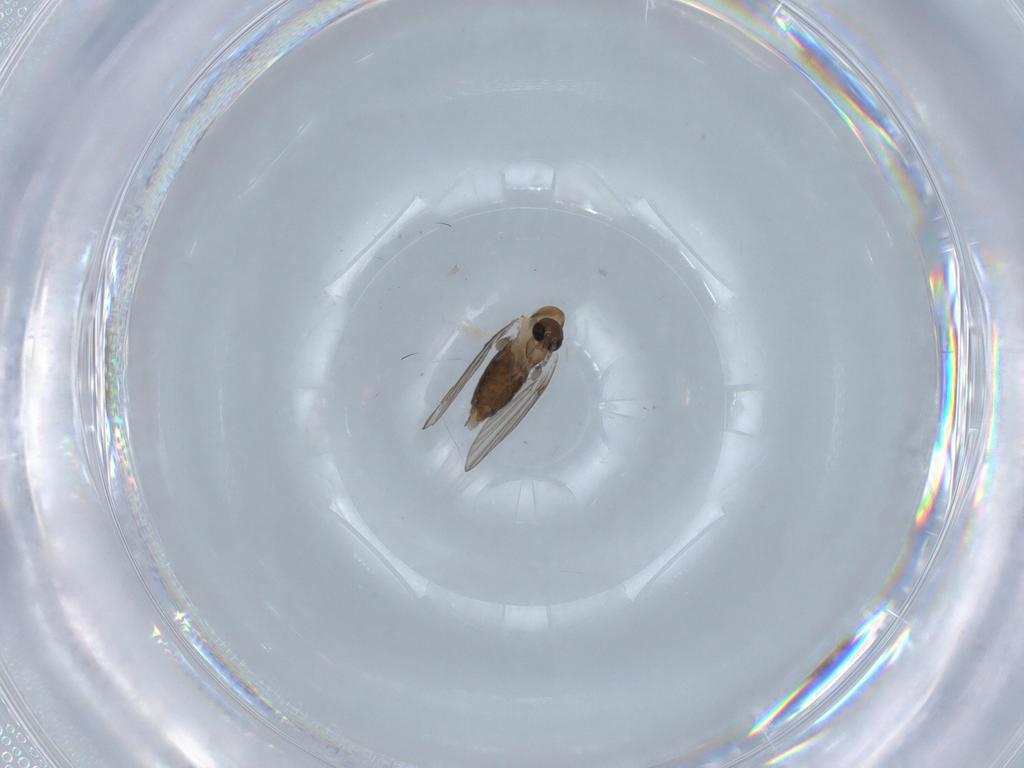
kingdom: Animalia
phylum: Arthropoda
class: Insecta
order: Diptera
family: Psychodidae
